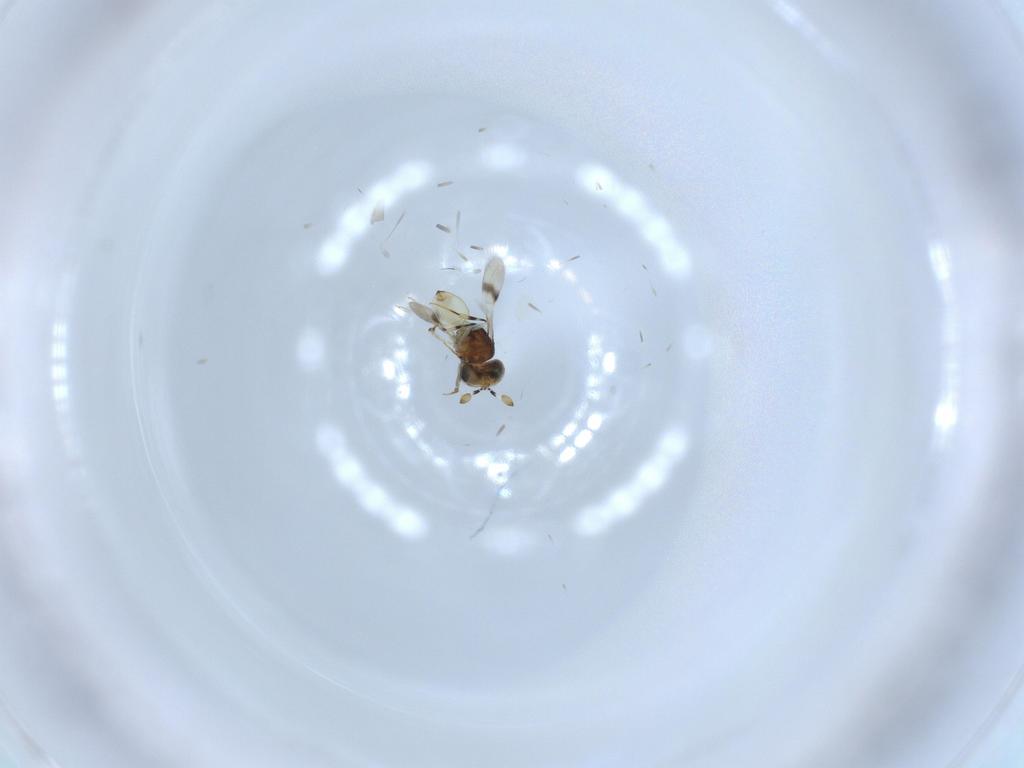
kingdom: Animalia
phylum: Arthropoda
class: Insecta
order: Hymenoptera
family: Scelionidae
